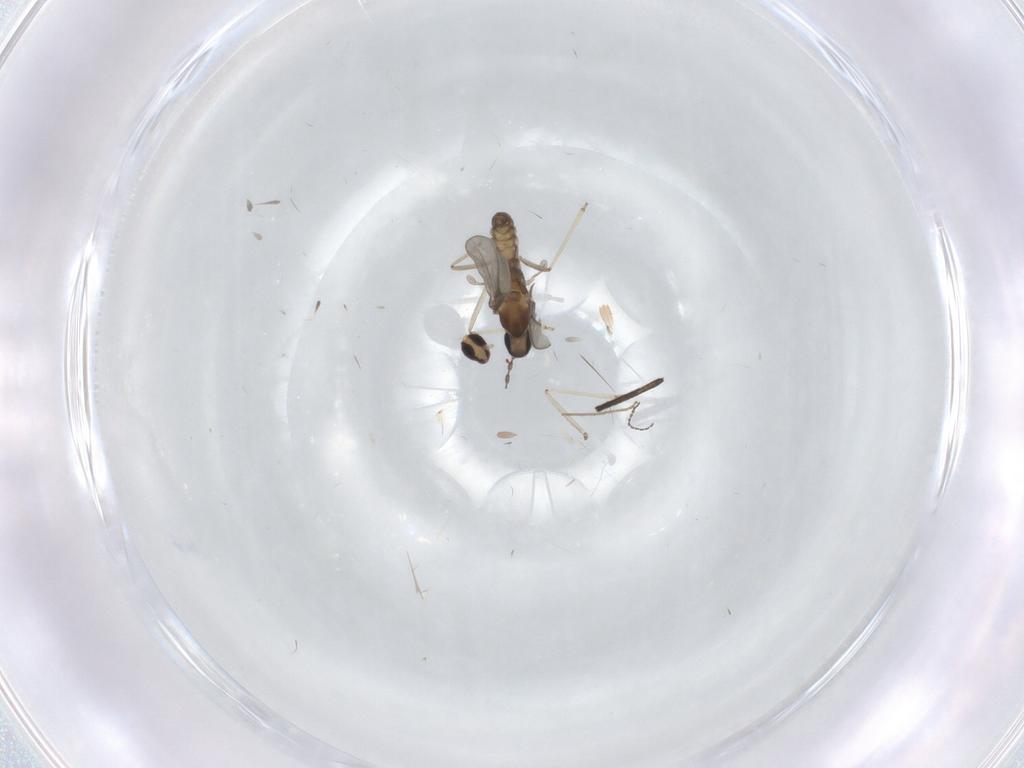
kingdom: Animalia
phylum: Arthropoda
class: Insecta
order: Diptera
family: Cecidomyiidae
